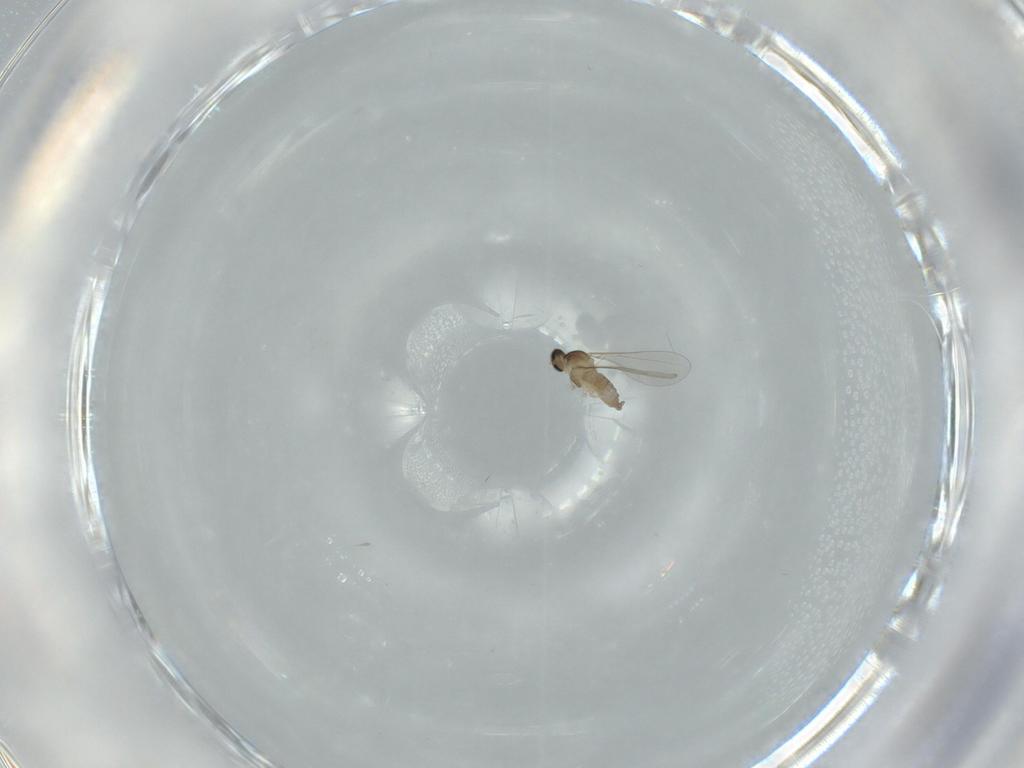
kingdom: Animalia
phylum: Arthropoda
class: Insecta
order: Diptera
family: Cecidomyiidae
